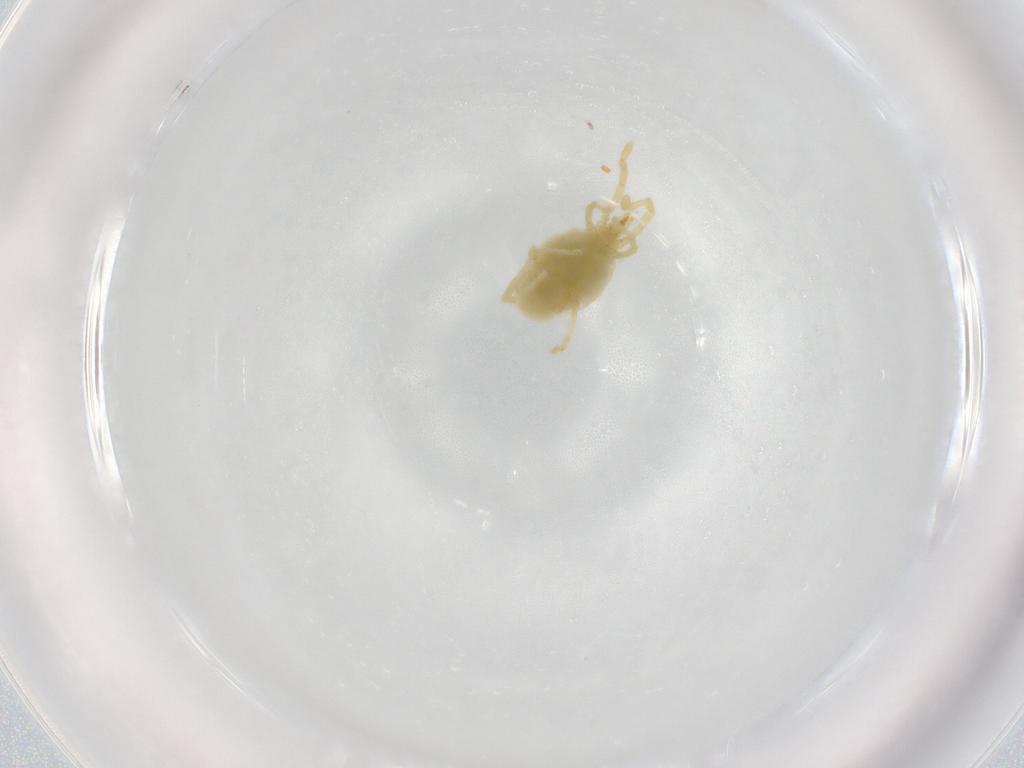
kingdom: Animalia
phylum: Arthropoda
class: Arachnida
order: Trombidiformes
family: Erythraeidae
